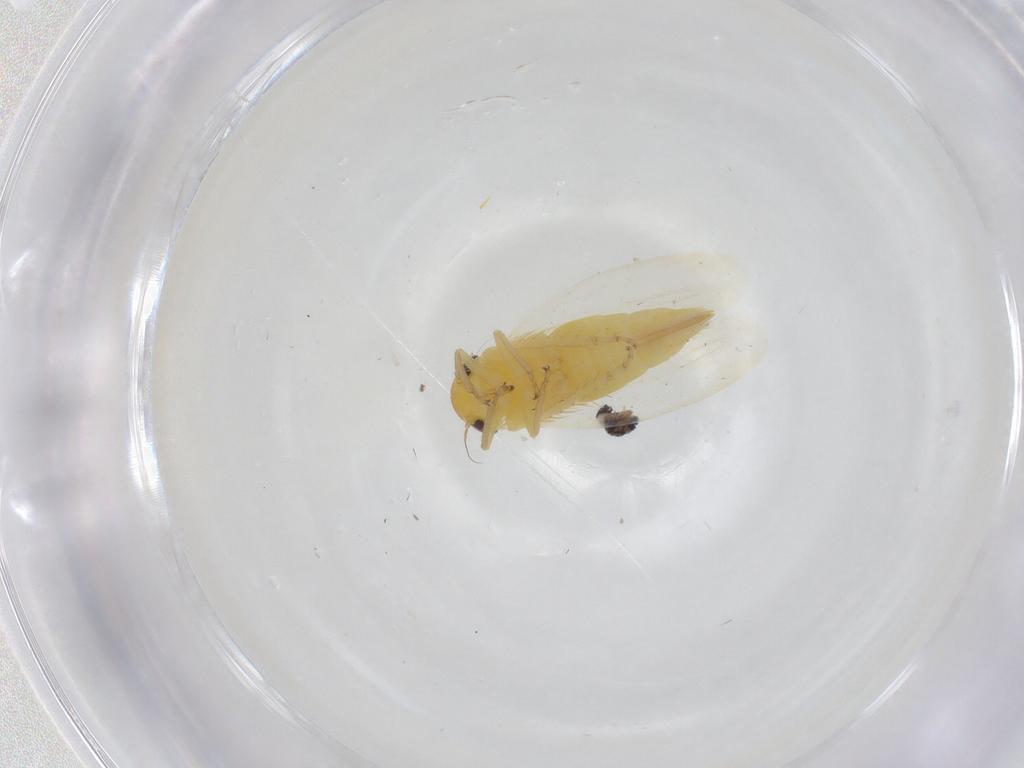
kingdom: Animalia
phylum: Arthropoda
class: Insecta
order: Hemiptera
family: Cicadellidae
